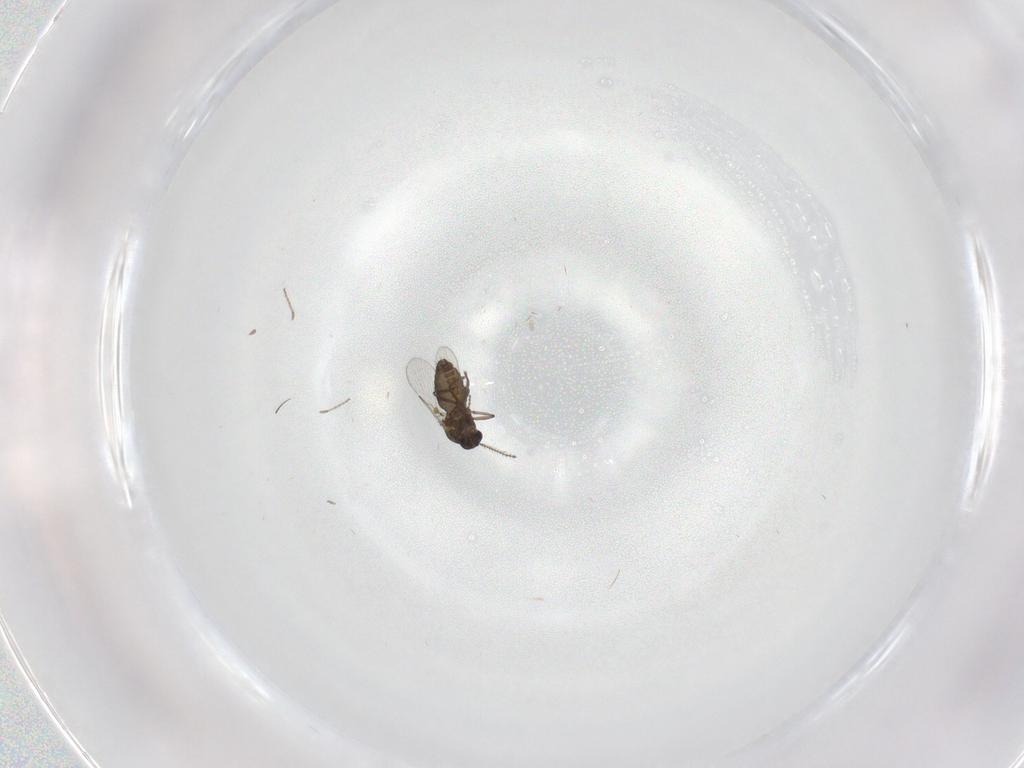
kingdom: Animalia
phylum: Arthropoda
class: Insecta
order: Diptera
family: Ceratopogonidae
